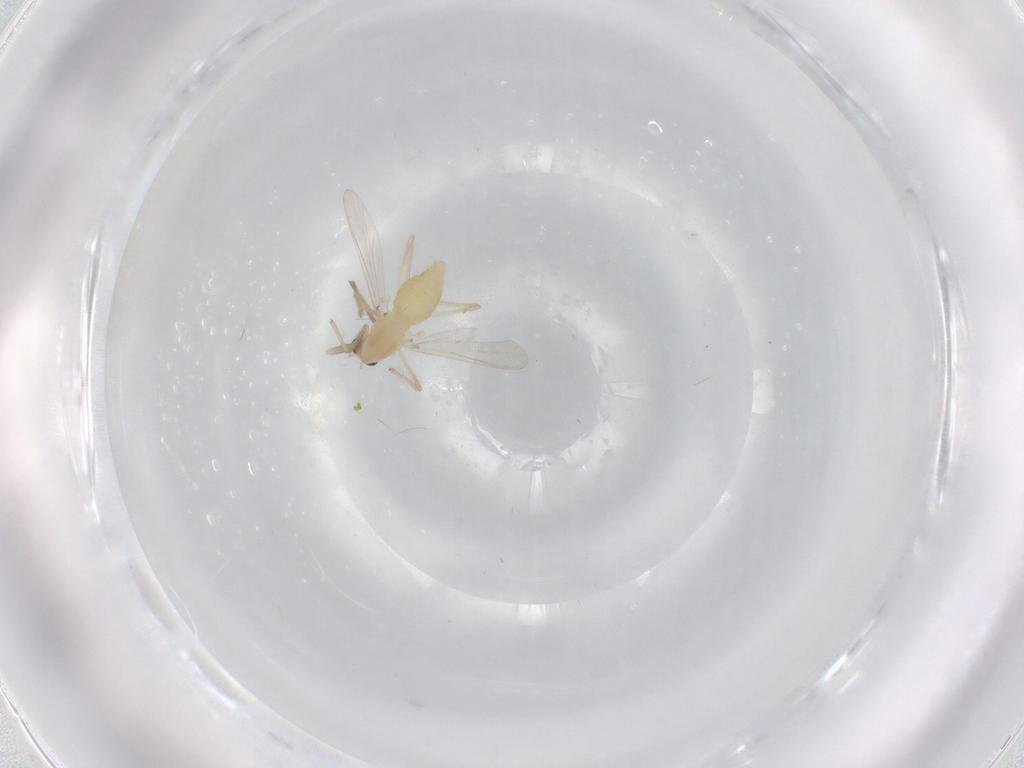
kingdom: Animalia
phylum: Arthropoda
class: Insecta
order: Diptera
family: Chironomidae
